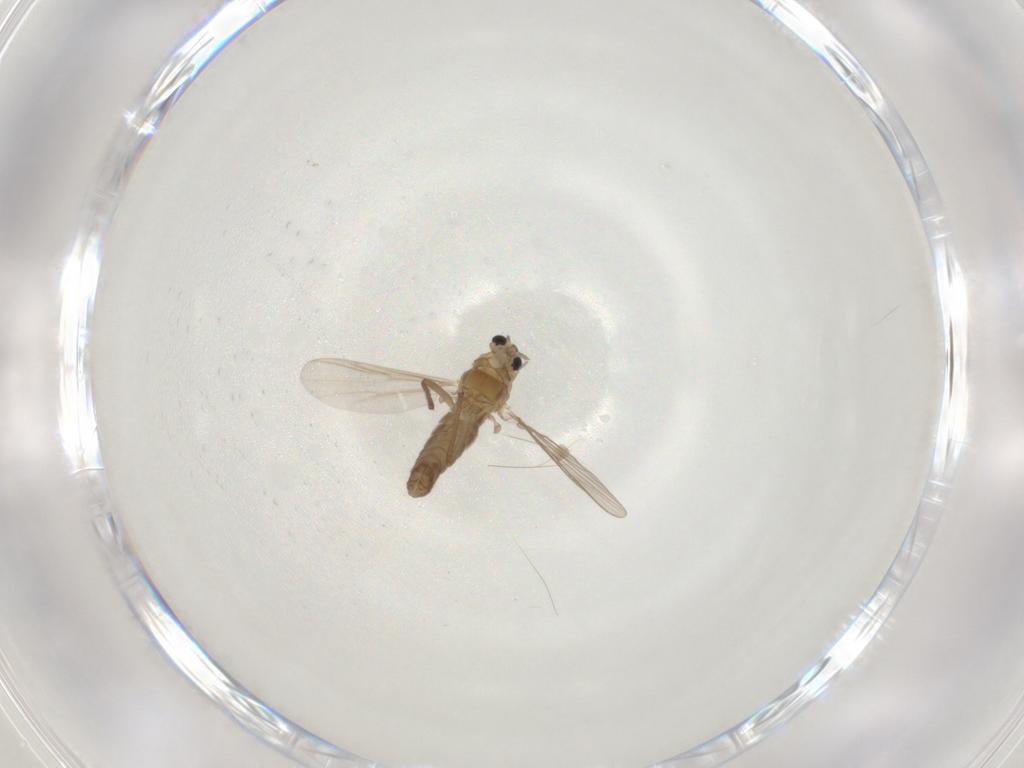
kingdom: Animalia
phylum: Arthropoda
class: Insecta
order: Diptera
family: Chironomidae
